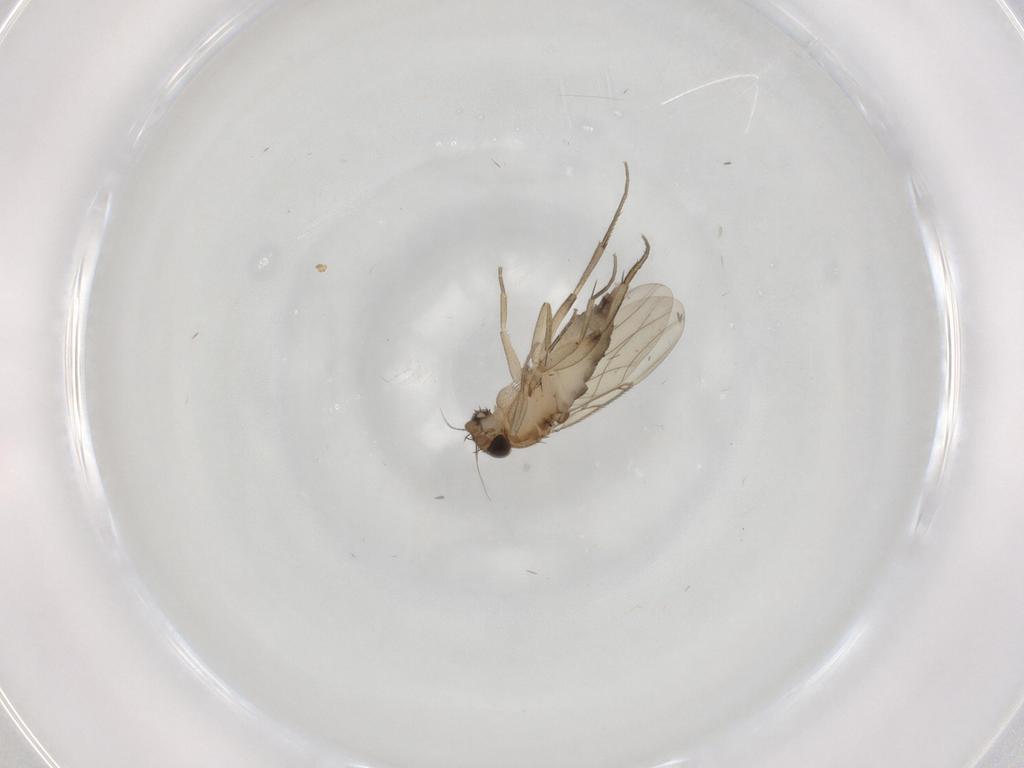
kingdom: Animalia
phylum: Arthropoda
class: Insecta
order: Diptera
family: Phoridae
